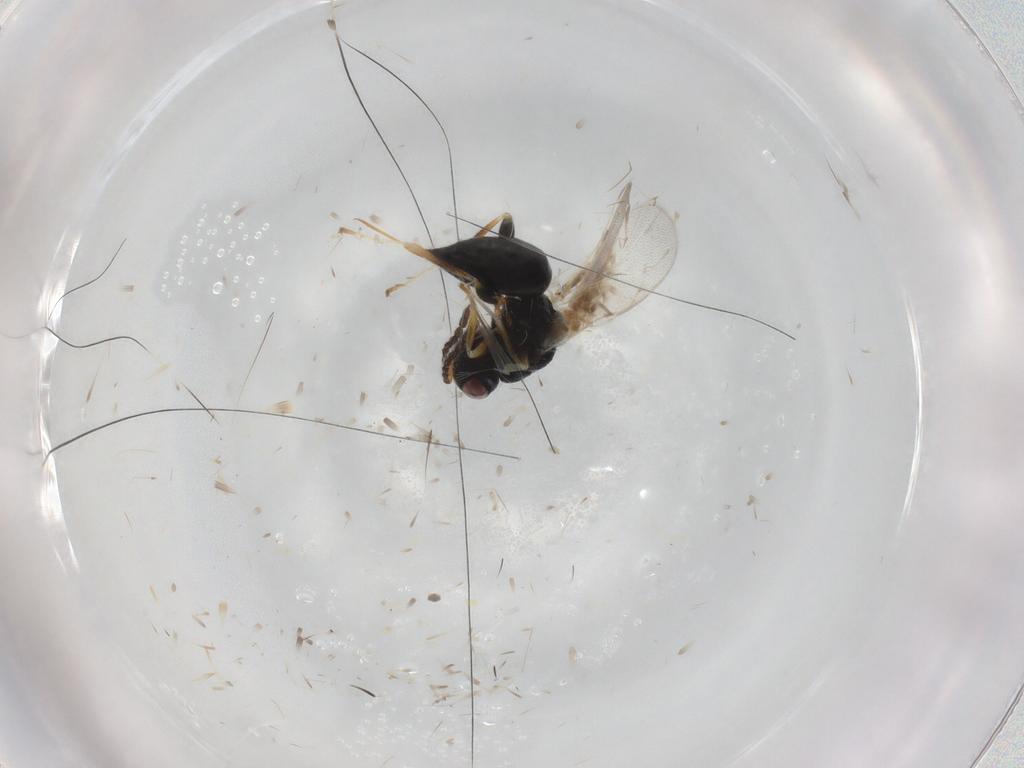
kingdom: Animalia
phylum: Arthropoda
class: Insecta
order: Hymenoptera
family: Eurytomidae
